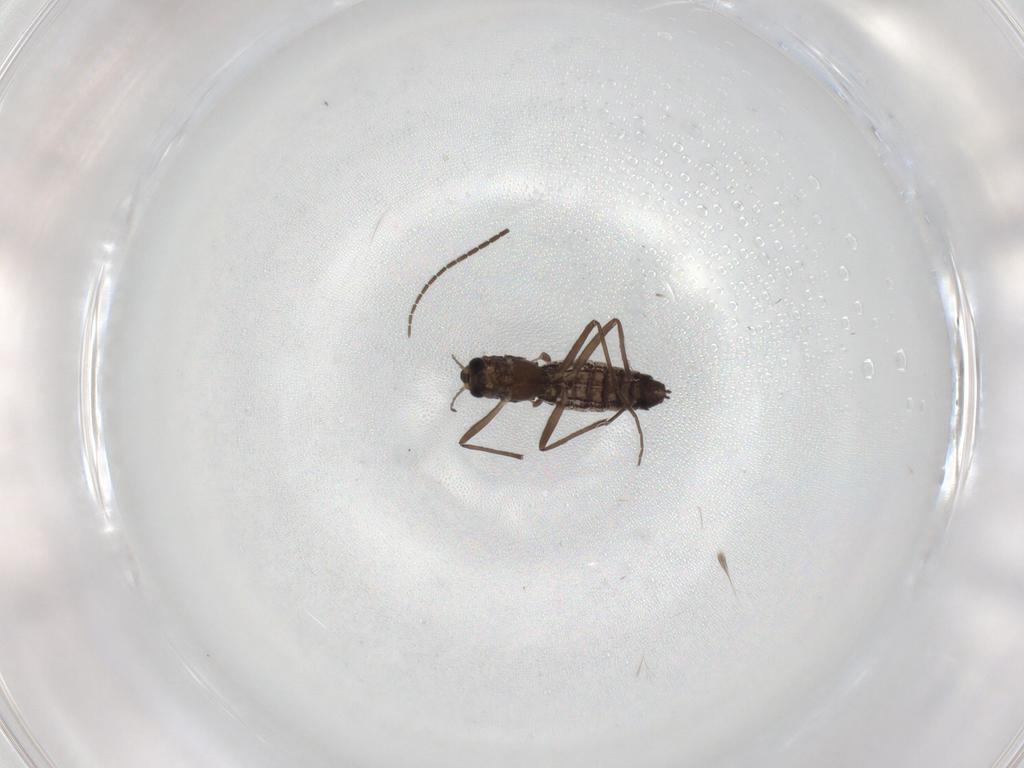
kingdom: Animalia
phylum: Arthropoda
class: Insecta
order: Diptera
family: Chironomidae
